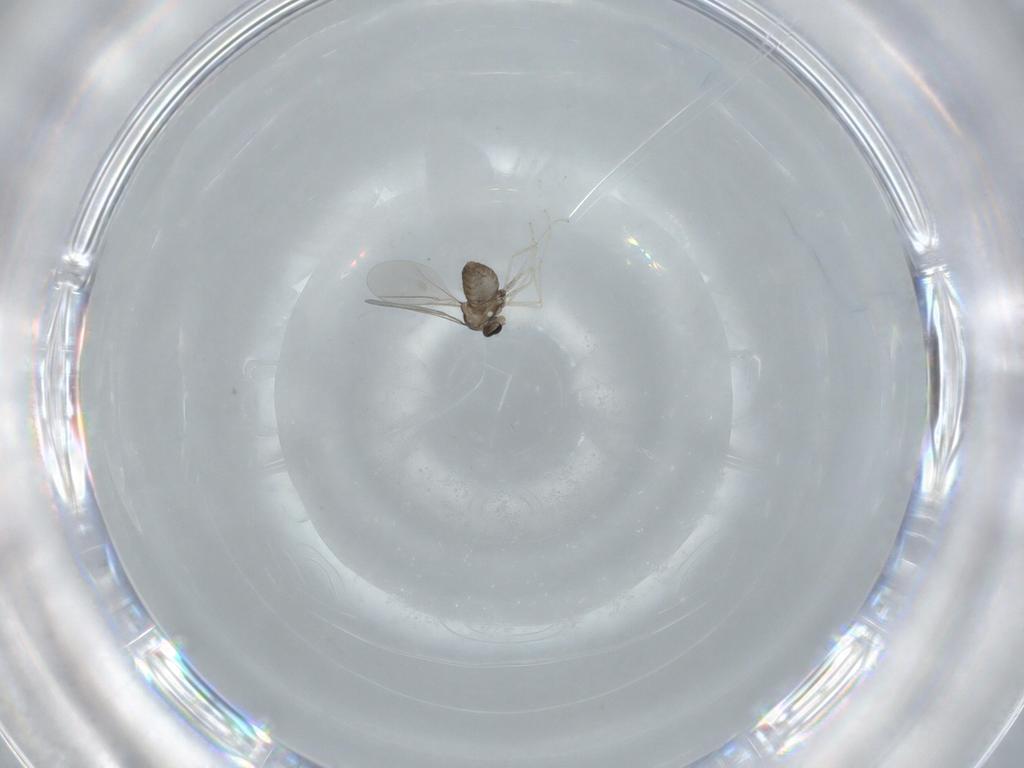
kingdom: Animalia
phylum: Arthropoda
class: Insecta
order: Diptera
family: Cecidomyiidae
